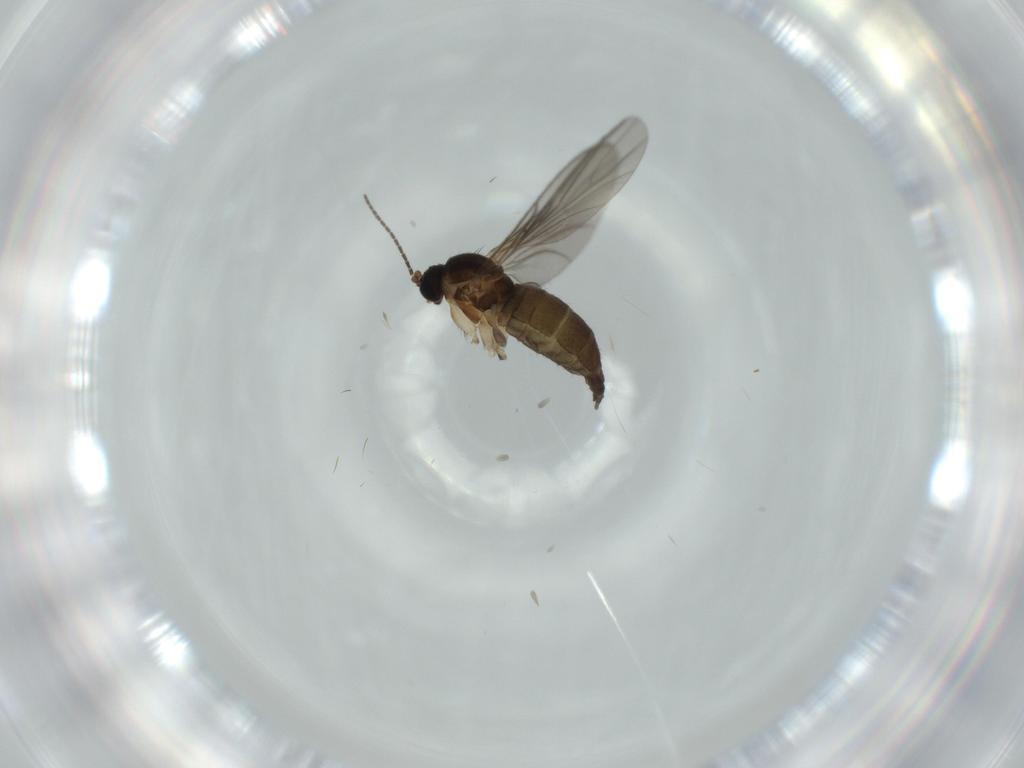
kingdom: Animalia
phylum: Arthropoda
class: Insecta
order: Diptera
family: Sciaridae
